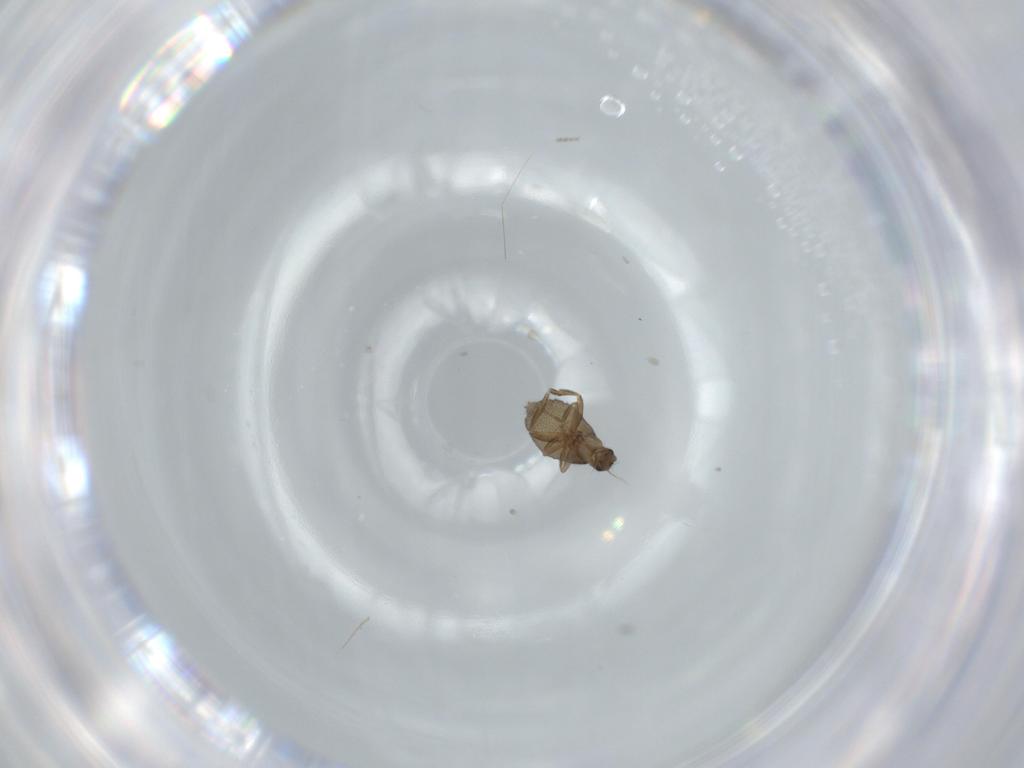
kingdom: Animalia
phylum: Arthropoda
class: Insecta
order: Diptera
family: Phoridae
